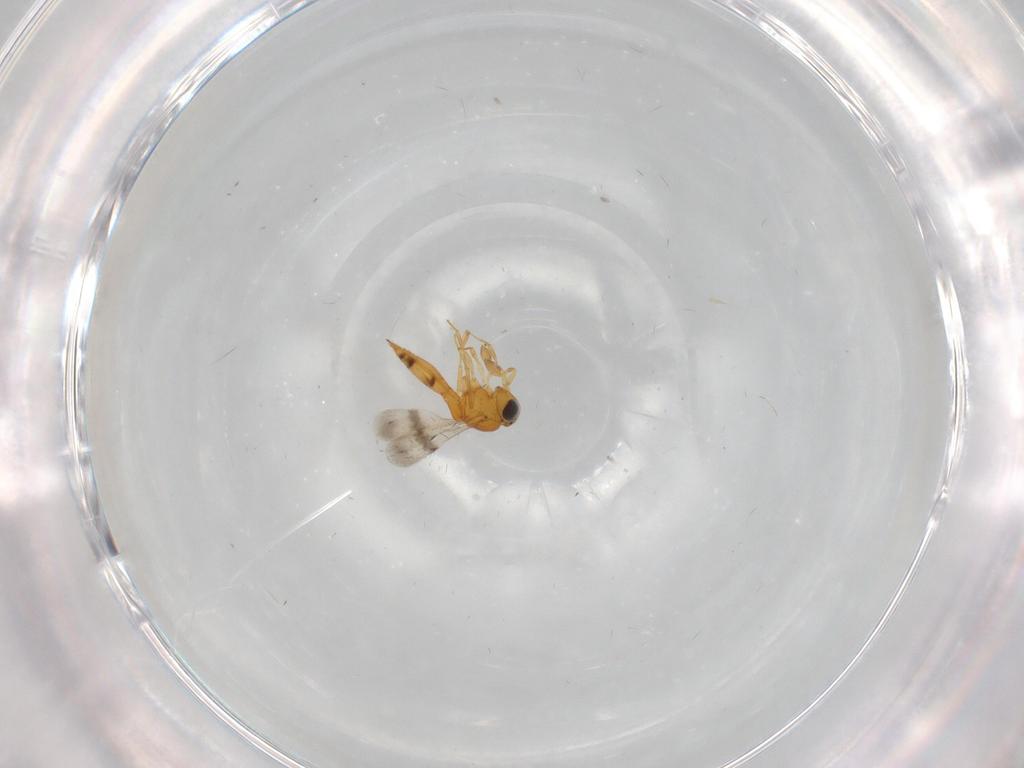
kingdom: Animalia
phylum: Arthropoda
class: Insecta
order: Hymenoptera
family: Scelionidae
